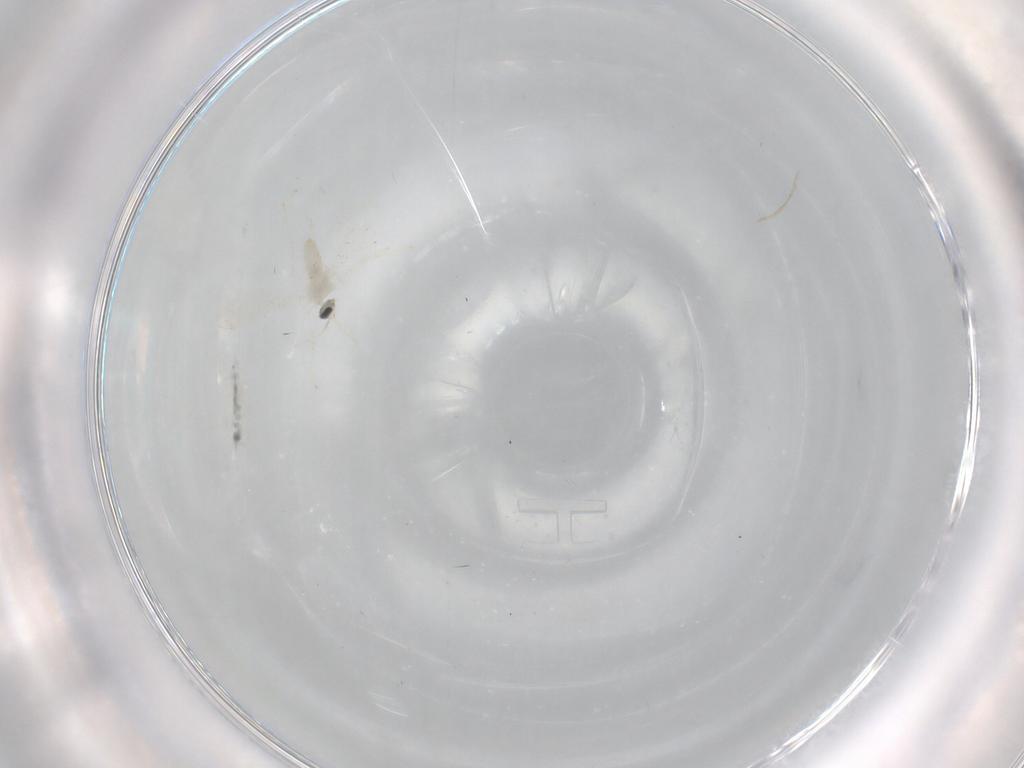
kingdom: Animalia
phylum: Arthropoda
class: Insecta
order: Diptera
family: Cecidomyiidae
